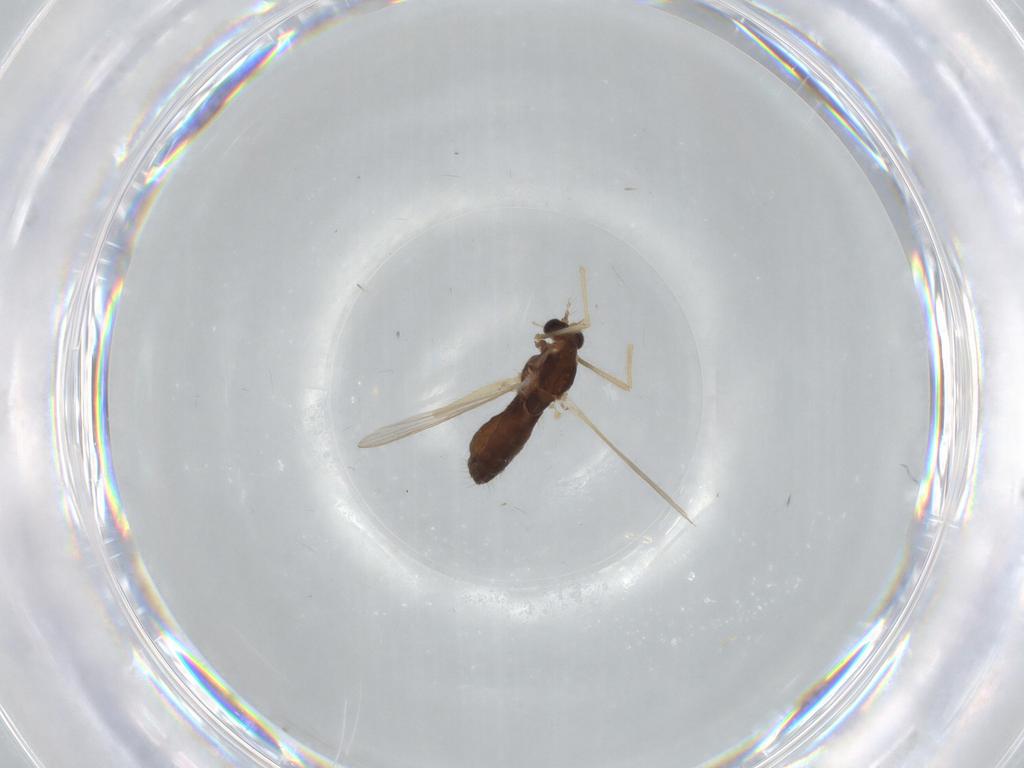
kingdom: Animalia
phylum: Arthropoda
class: Insecta
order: Diptera
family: Chironomidae
